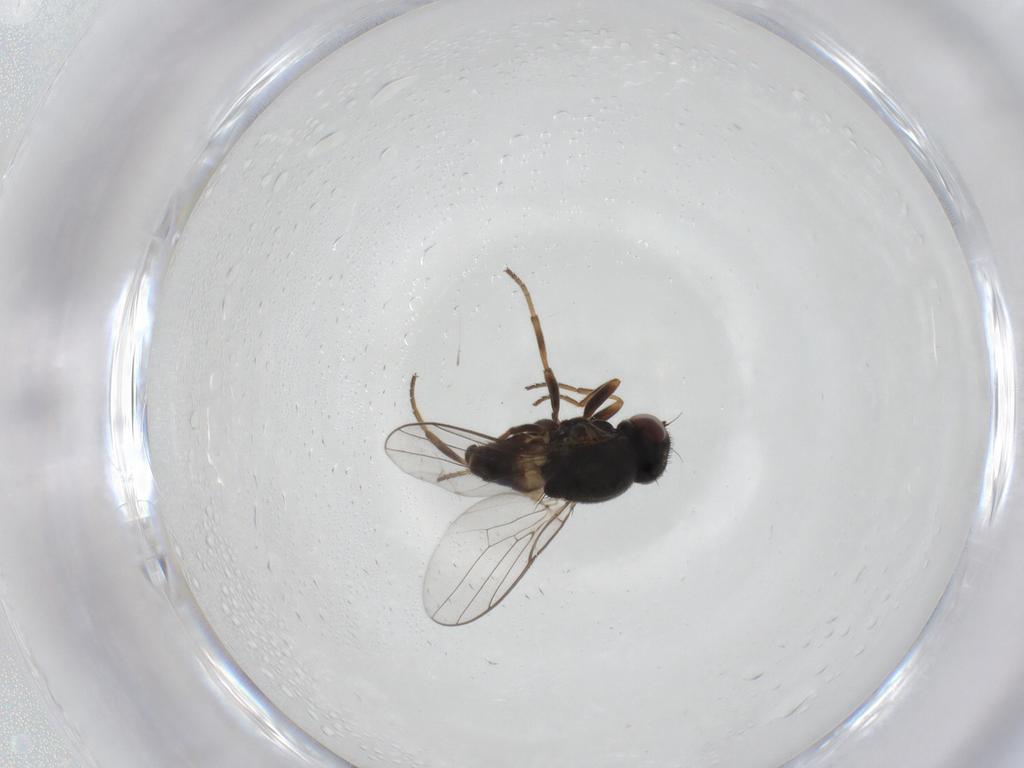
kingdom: Animalia
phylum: Arthropoda
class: Insecta
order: Diptera
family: Chloropidae
